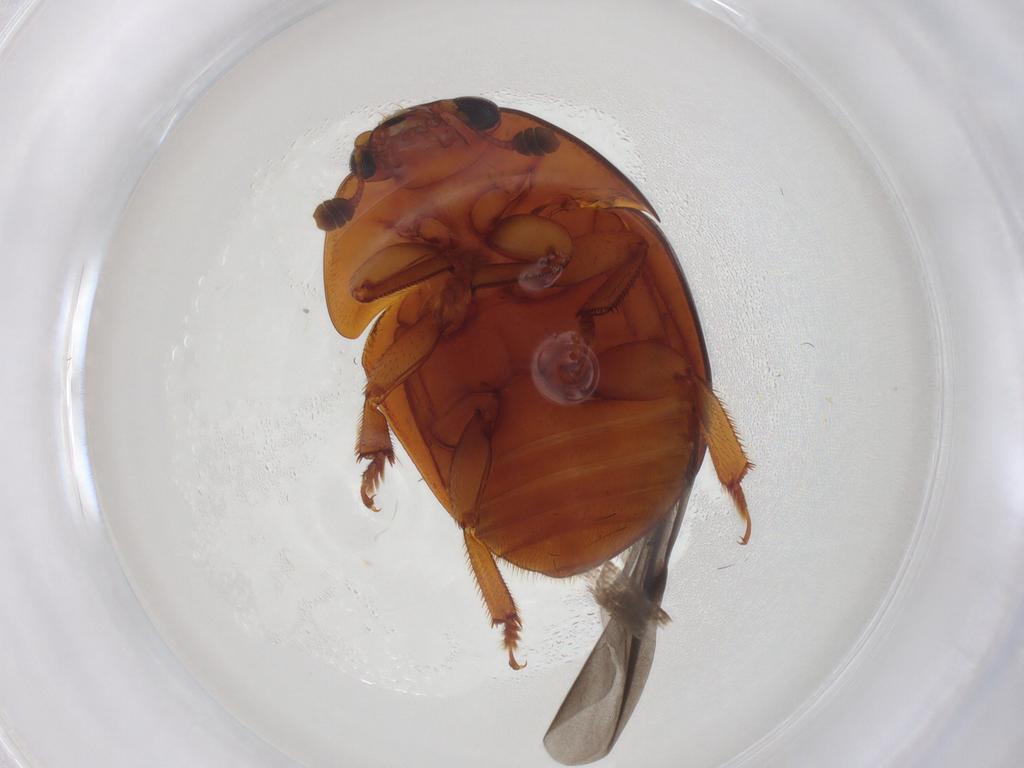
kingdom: Animalia
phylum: Arthropoda
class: Insecta
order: Coleoptera
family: Nitidulidae
